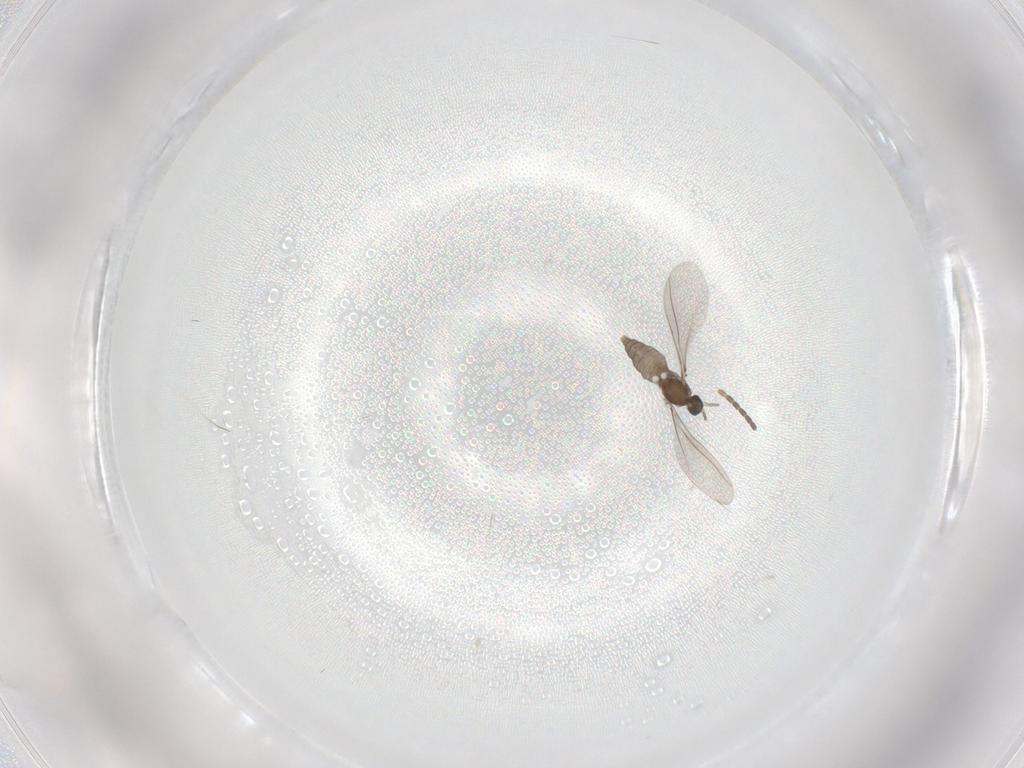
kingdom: Animalia
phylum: Arthropoda
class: Insecta
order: Diptera
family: Cecidomyiidae
